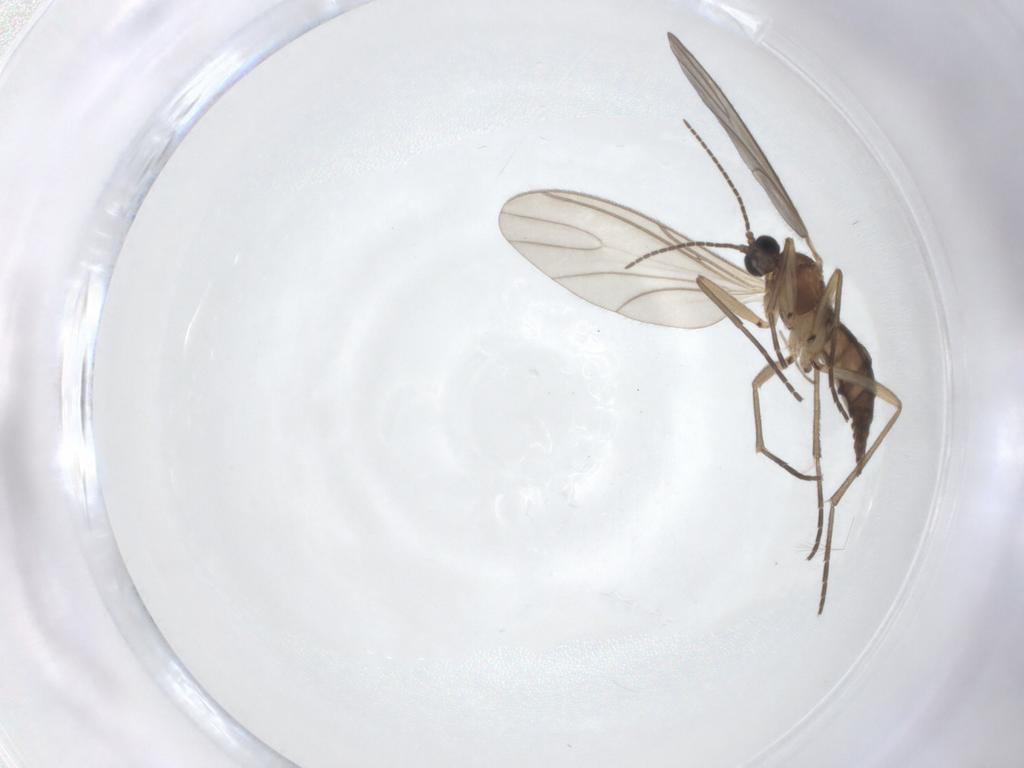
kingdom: Animalia
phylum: Arthropoda
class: Insecta
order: Diptera
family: Sciaridae
